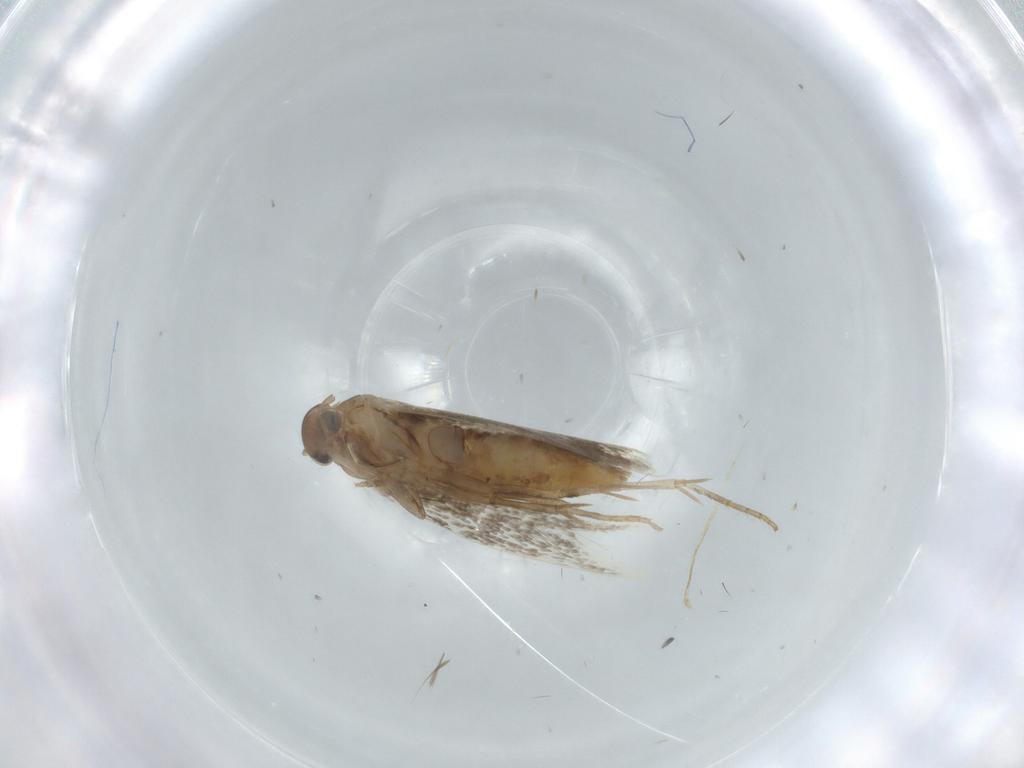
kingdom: Animalia
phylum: Arthropoda
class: Insecta
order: Lepidoptera
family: Elachistidae
